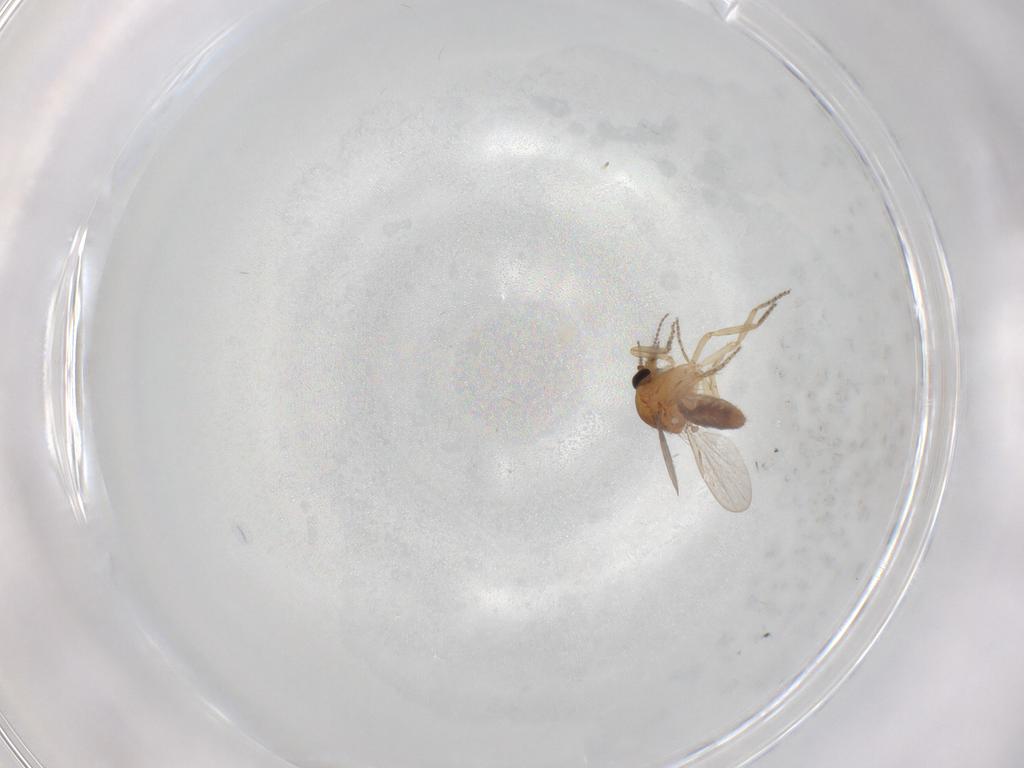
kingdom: Animalia
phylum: Arthropoda
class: Insecta
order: Diptera
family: Ceratopogonidae
